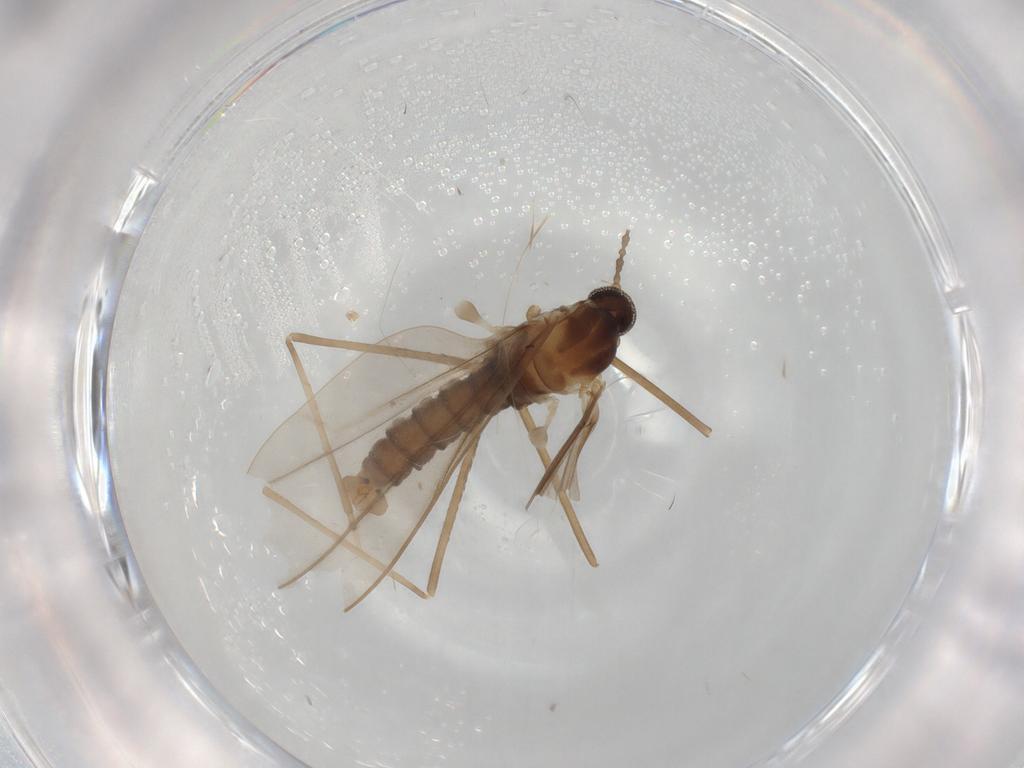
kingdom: Animalia
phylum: Arthropoda
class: Insecta
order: Diptera
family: Cecidomyiidae
